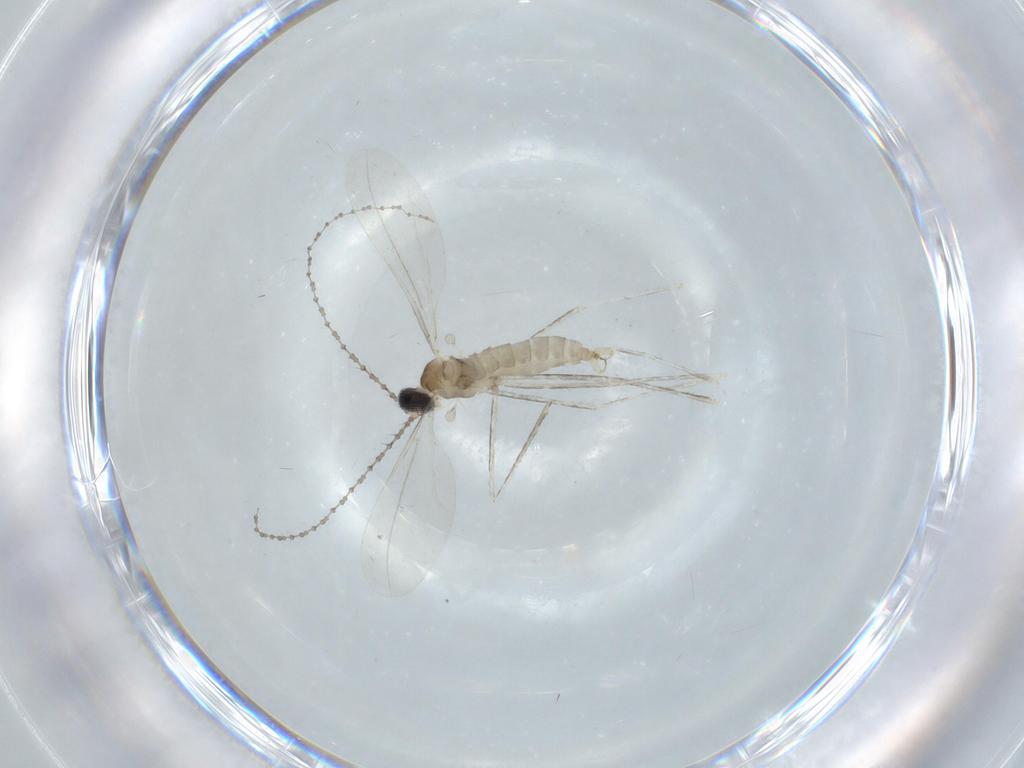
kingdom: Animalia
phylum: Arthropoda
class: Insecta
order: Diptera
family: Cecidomyiidae
